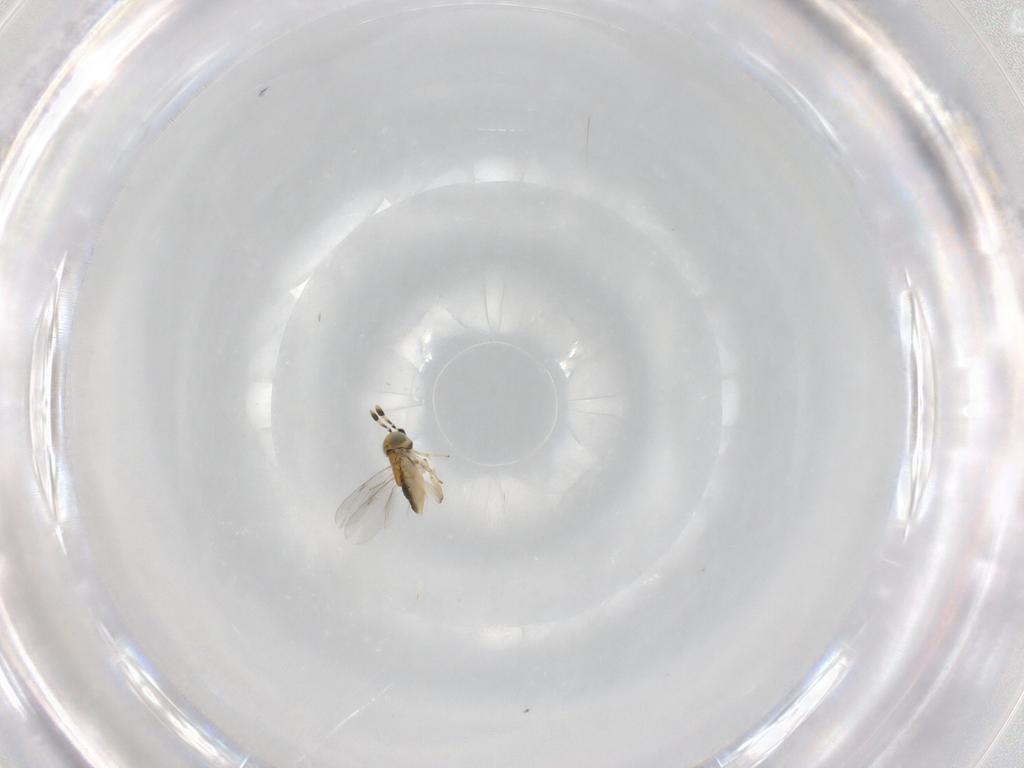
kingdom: Animalia
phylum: Arthropoda
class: Insecta
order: Hymenoptera
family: Encyrtidae
